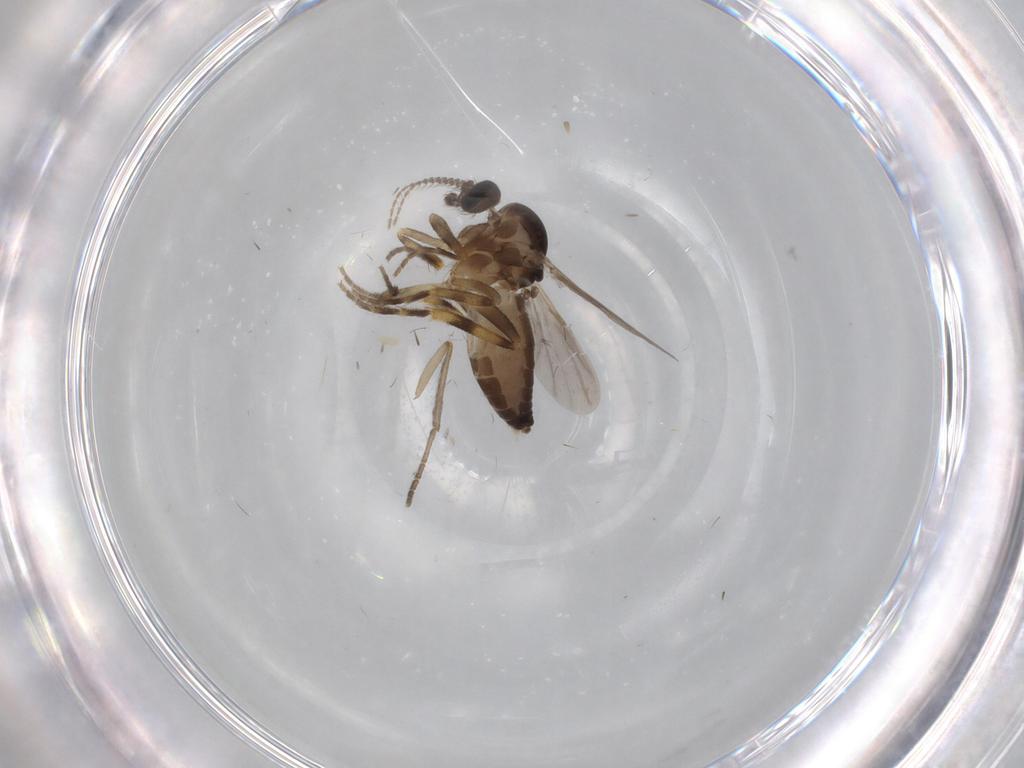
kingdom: Animalia
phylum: Arthropoda
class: Insecta
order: Diptera
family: Ceratopogonidae
